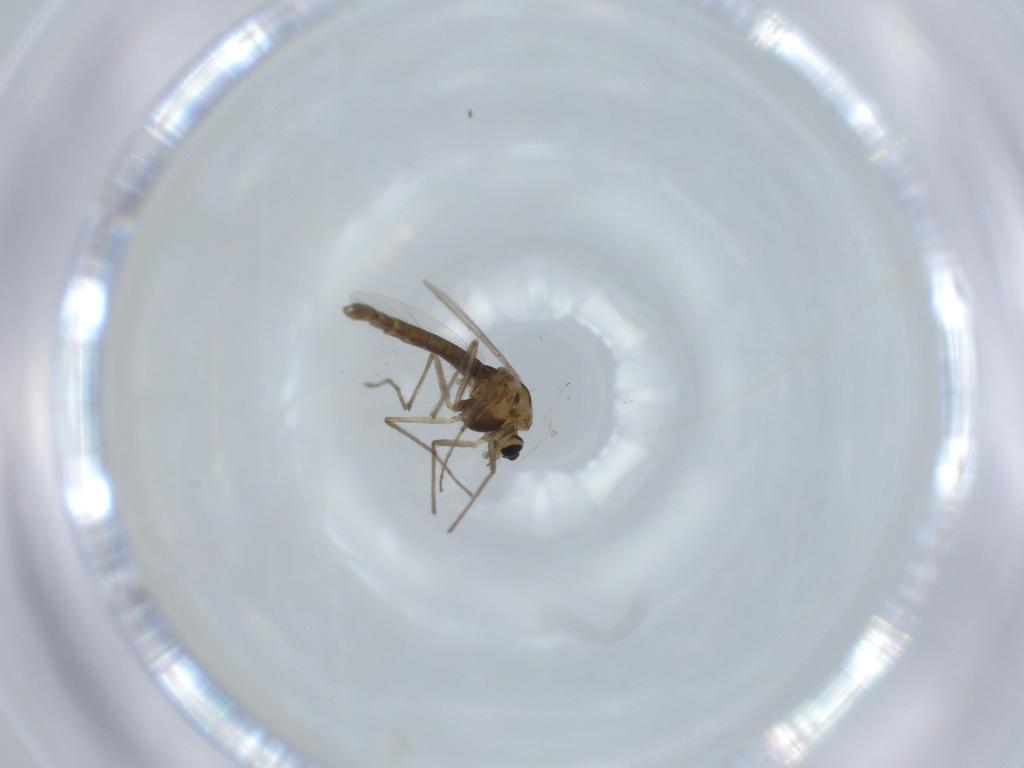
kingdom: Animalia
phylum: Arthropoda
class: Insecta
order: Diptera
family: Chironomidae
